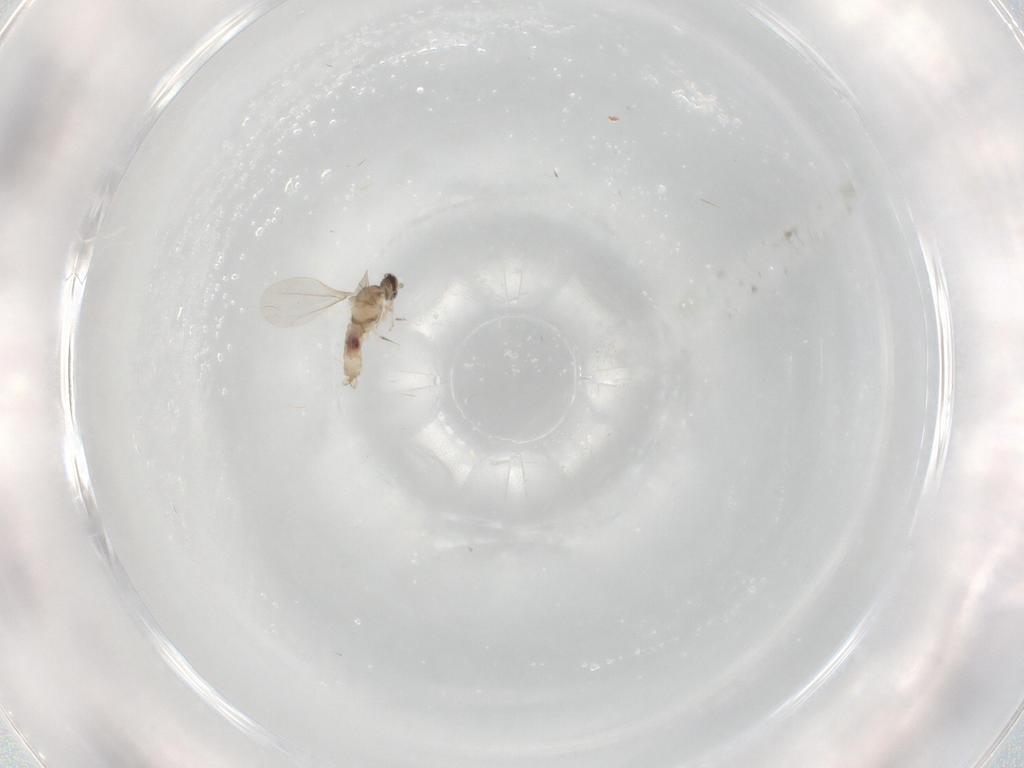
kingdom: Animalia
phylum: Arthropoda
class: Insecta
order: Diptera
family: Cecidomyiidae
